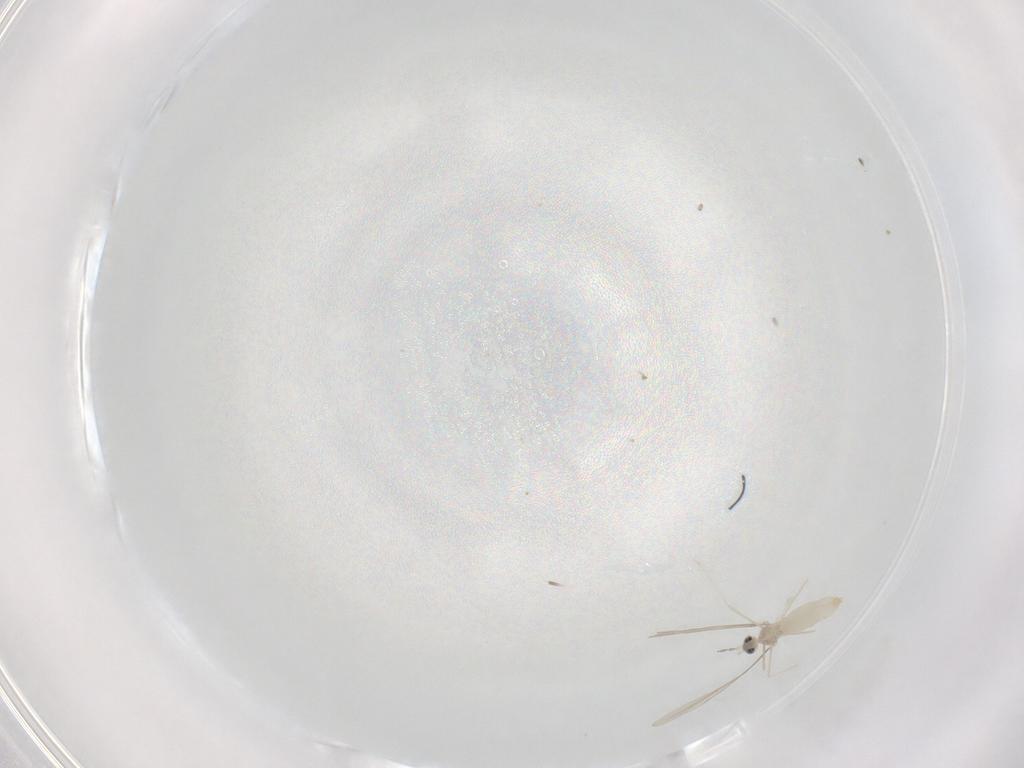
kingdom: Animalia
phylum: Arthropoda
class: Insecta
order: Diptera
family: Cecidomyiidae
